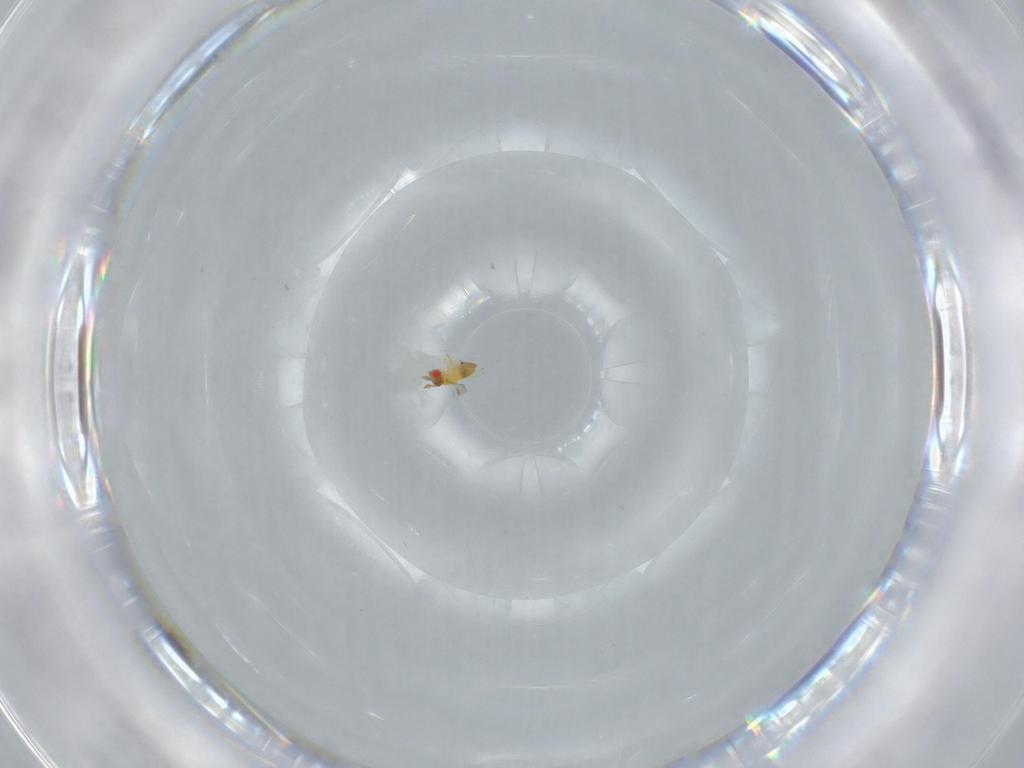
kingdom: Animalia
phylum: Arthropoda
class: Insecta
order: Hymenoptera
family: Trichogrammatidae
